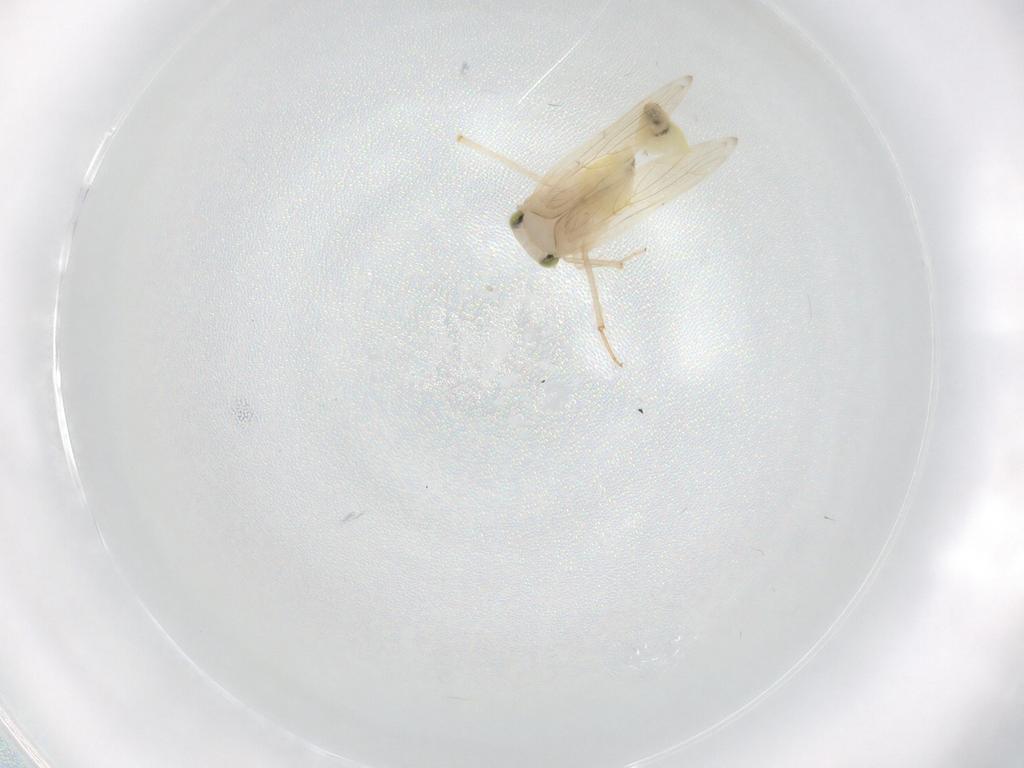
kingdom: Animalia
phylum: Arthropoda
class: Insecta
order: Psocodea
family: Lepidopsocidae
